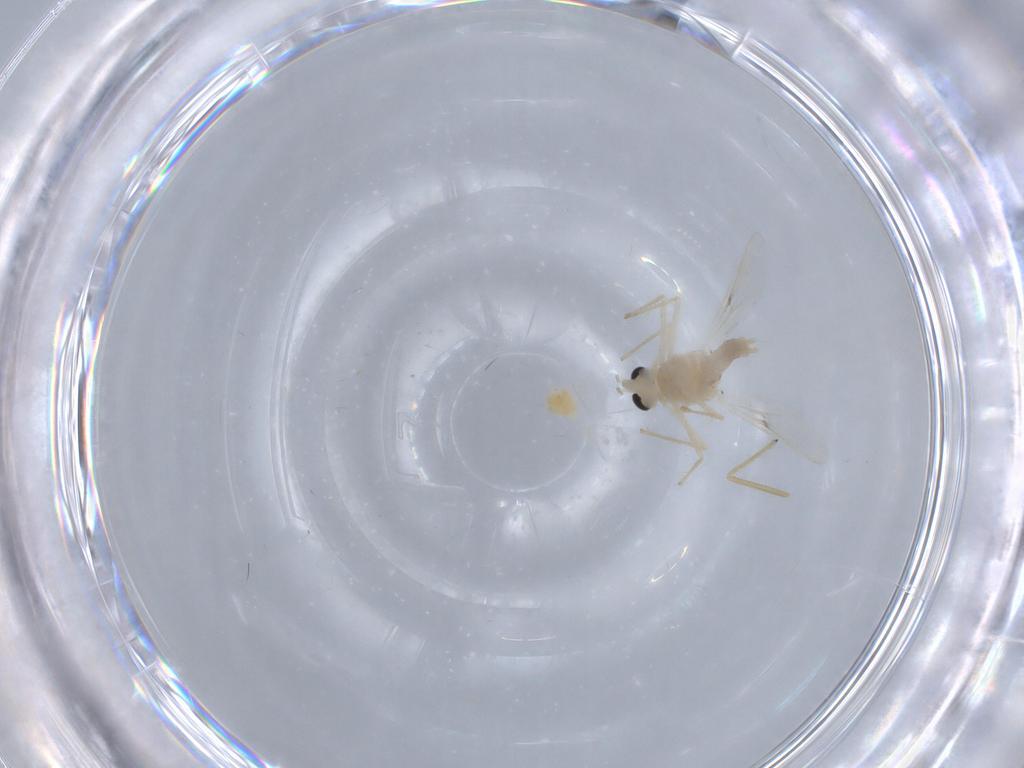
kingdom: Animalia
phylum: Arthropoda
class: Insecta
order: Diptera
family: Chironomidae
